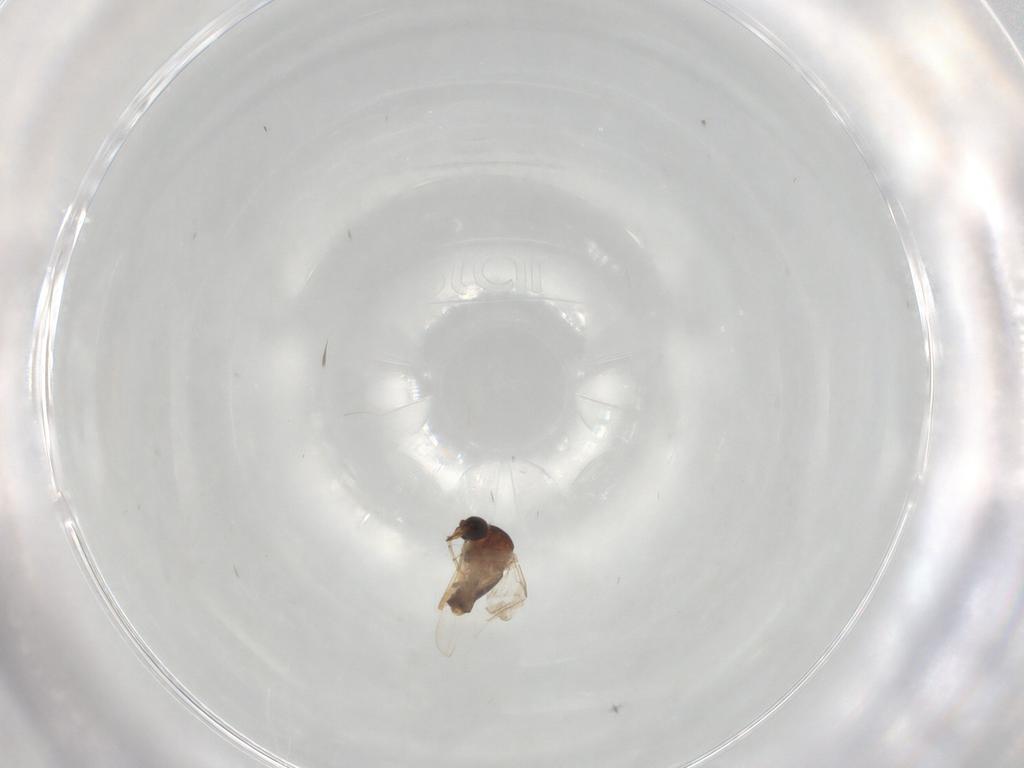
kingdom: Animalia
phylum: Arthropoda
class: Insecta
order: Diptera
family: Ceratopogonidae
